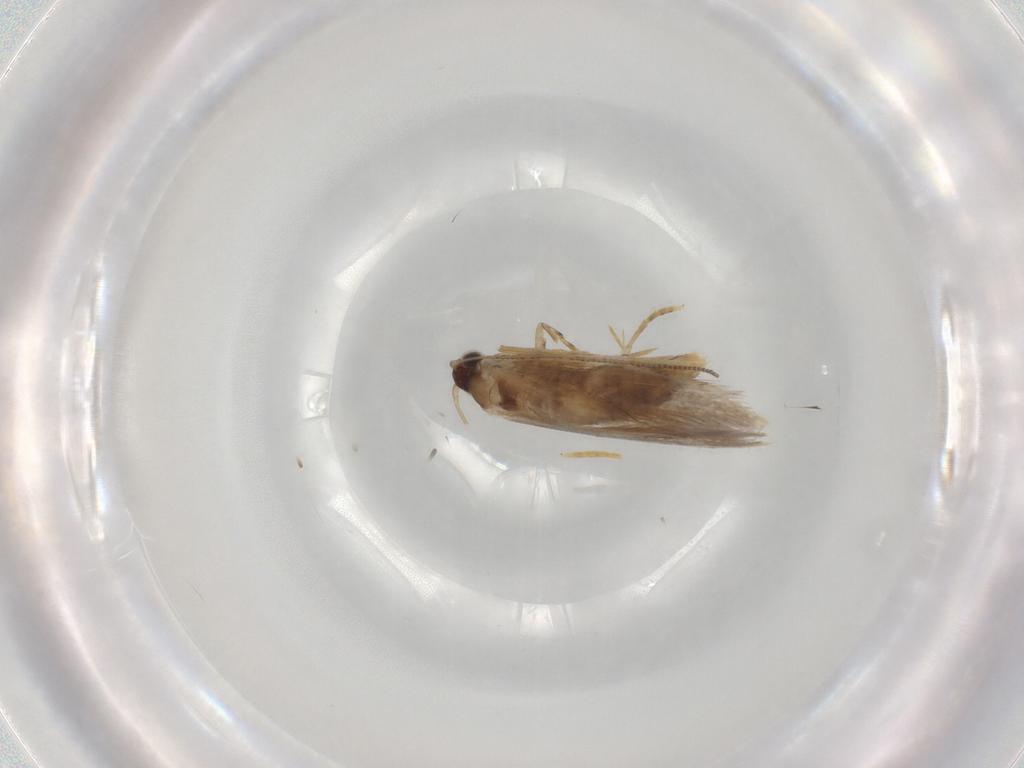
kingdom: Animalia
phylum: Arthropoda
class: Insecta
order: Lepidoptera
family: Tineidae
